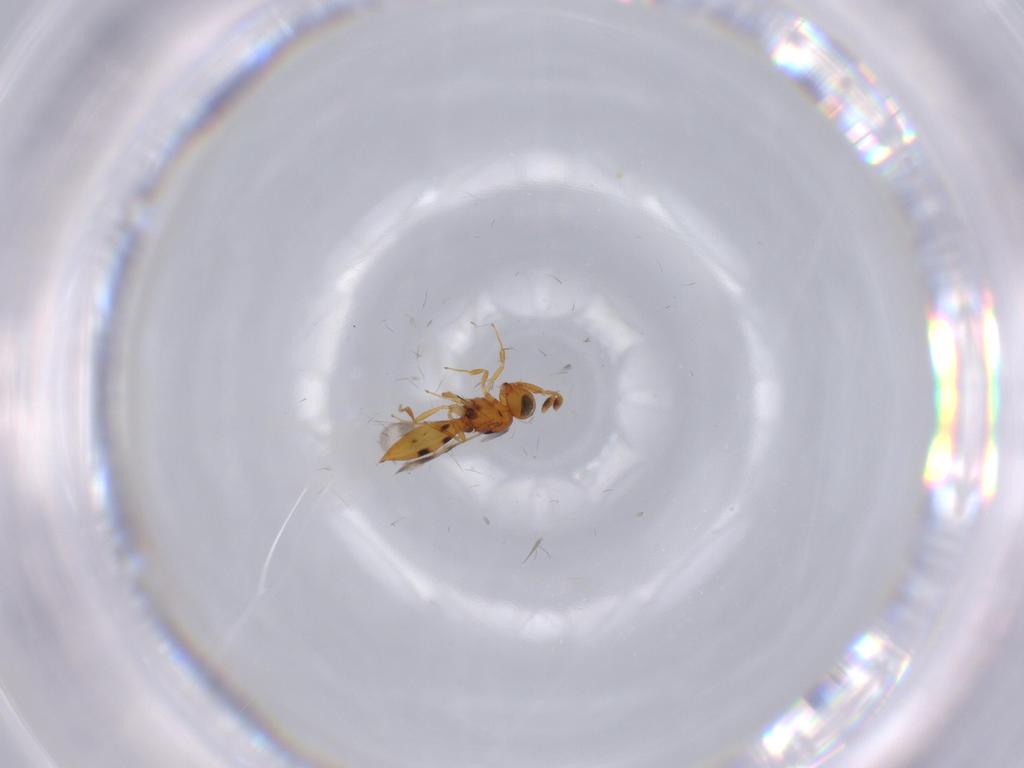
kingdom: Animalia
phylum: Arthropoda
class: Insecta
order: Hymenoptera
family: Scelionidae
